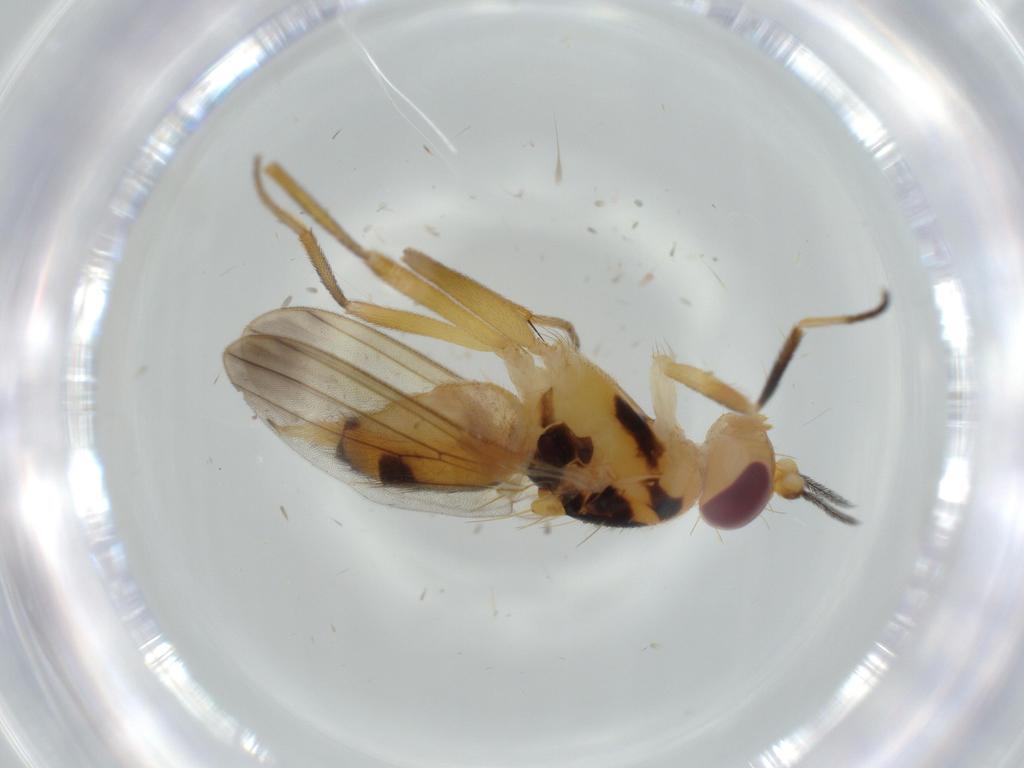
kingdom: Animalia
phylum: Arthropoda
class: Insecta
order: Diptera
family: Clusiidae
